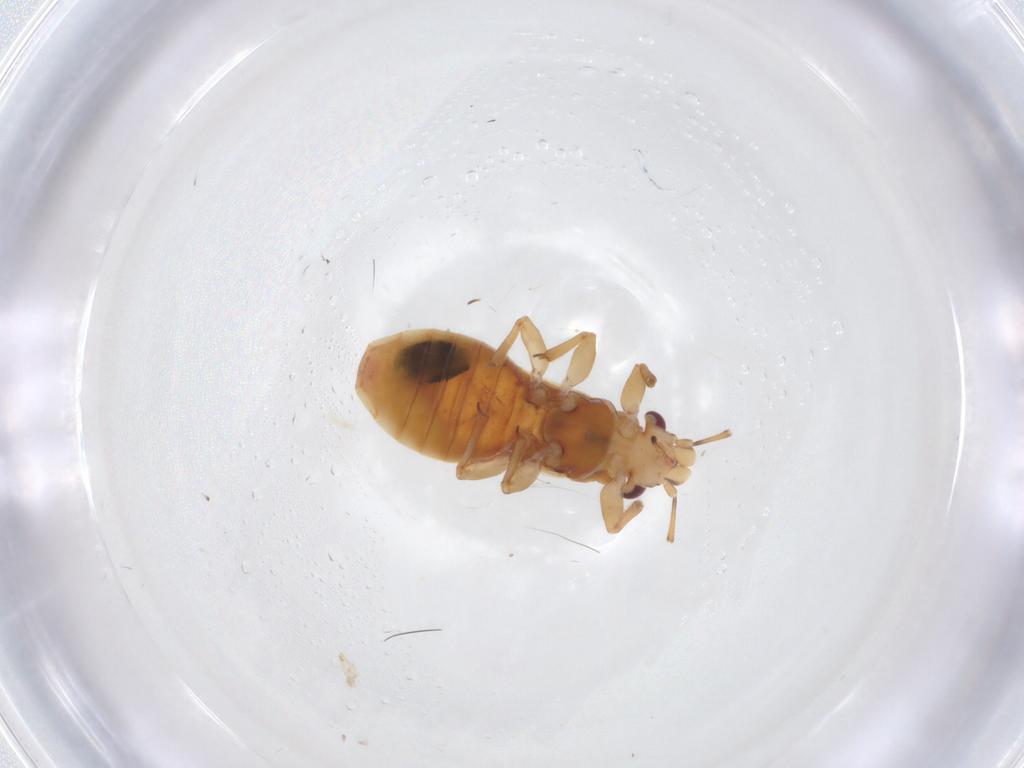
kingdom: Animalia
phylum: Arthropoda
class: Insecta
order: Hemiptera
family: Thaumastocoridae
